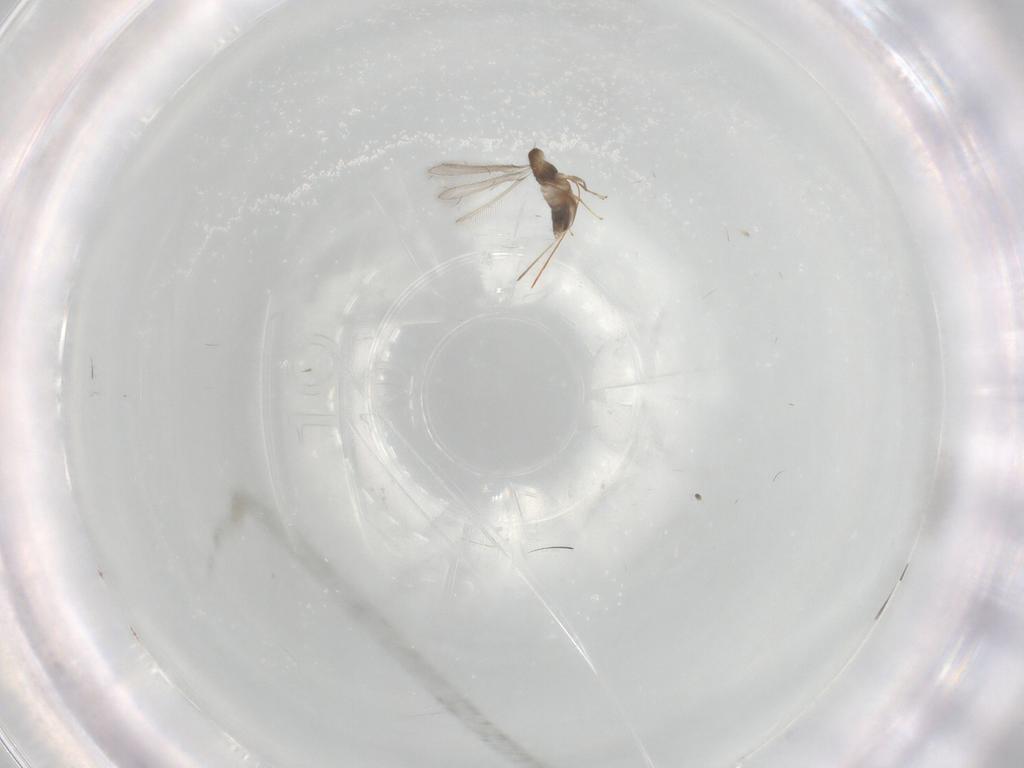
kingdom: Animalia
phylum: Arthropoda
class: Insecta
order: Hymenoptera
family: Mymaridae
